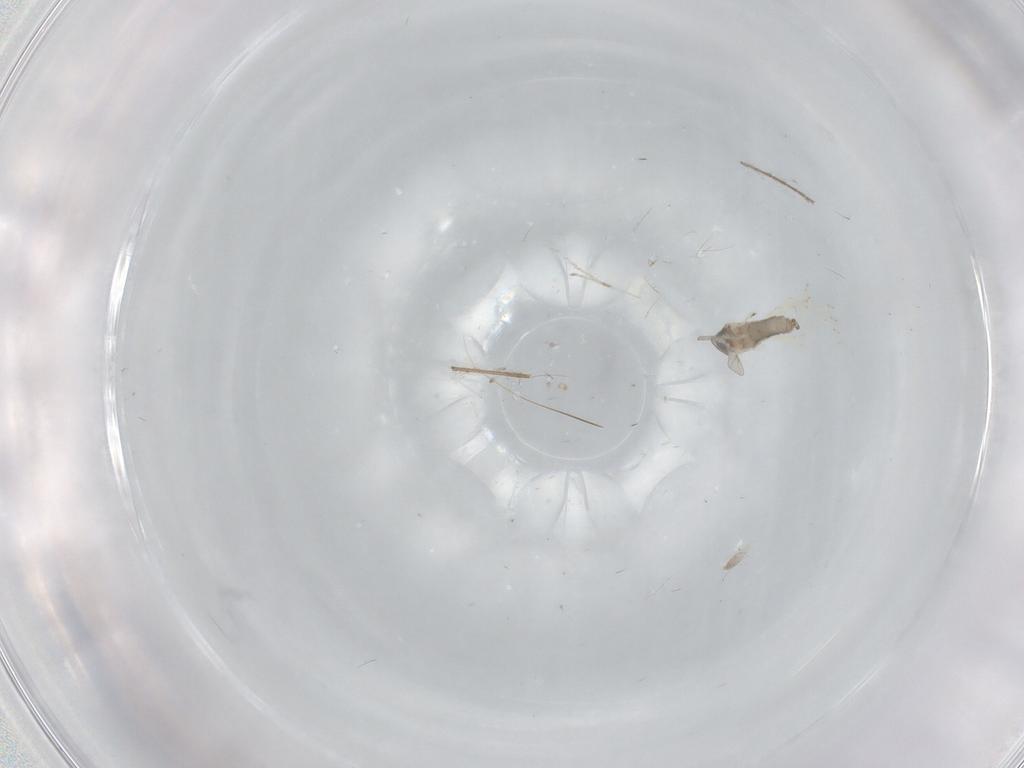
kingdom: Animalia
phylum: Arthropoda
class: Insecta
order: Diptera
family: Cecidomyiidae
